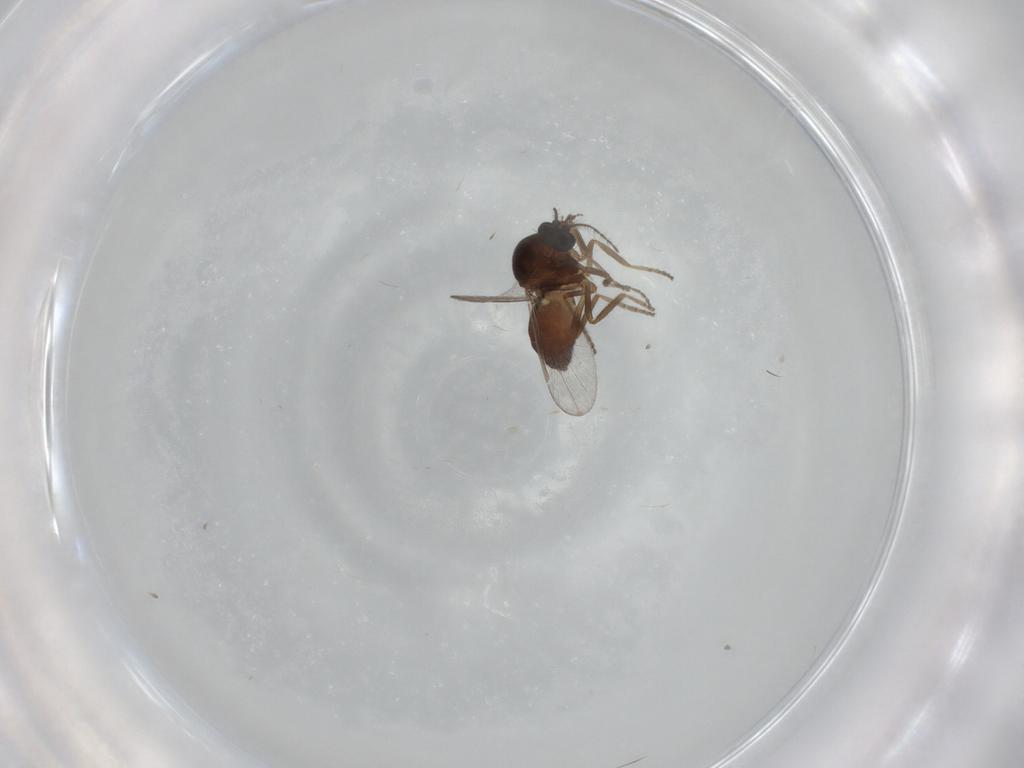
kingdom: Animalia
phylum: Arthropoda
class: Insecta
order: Diptera
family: Ceratopogonidae
